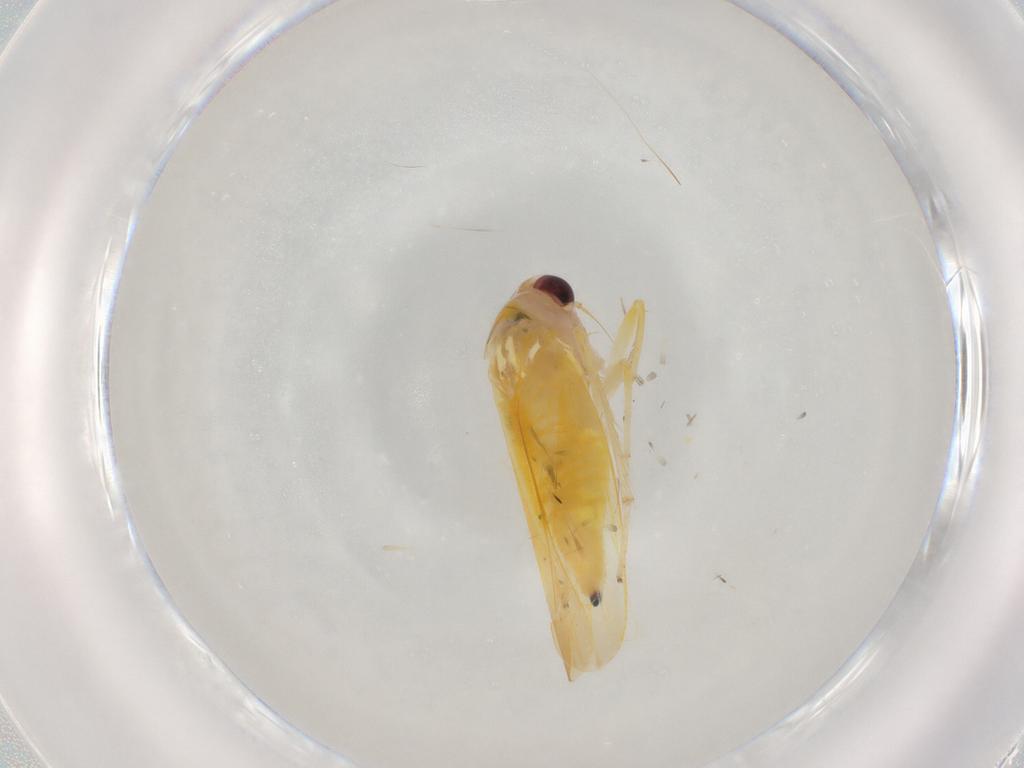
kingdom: Animalia
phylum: Arthropoda
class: Insecta
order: Hemiptera
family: Cicadellidae
